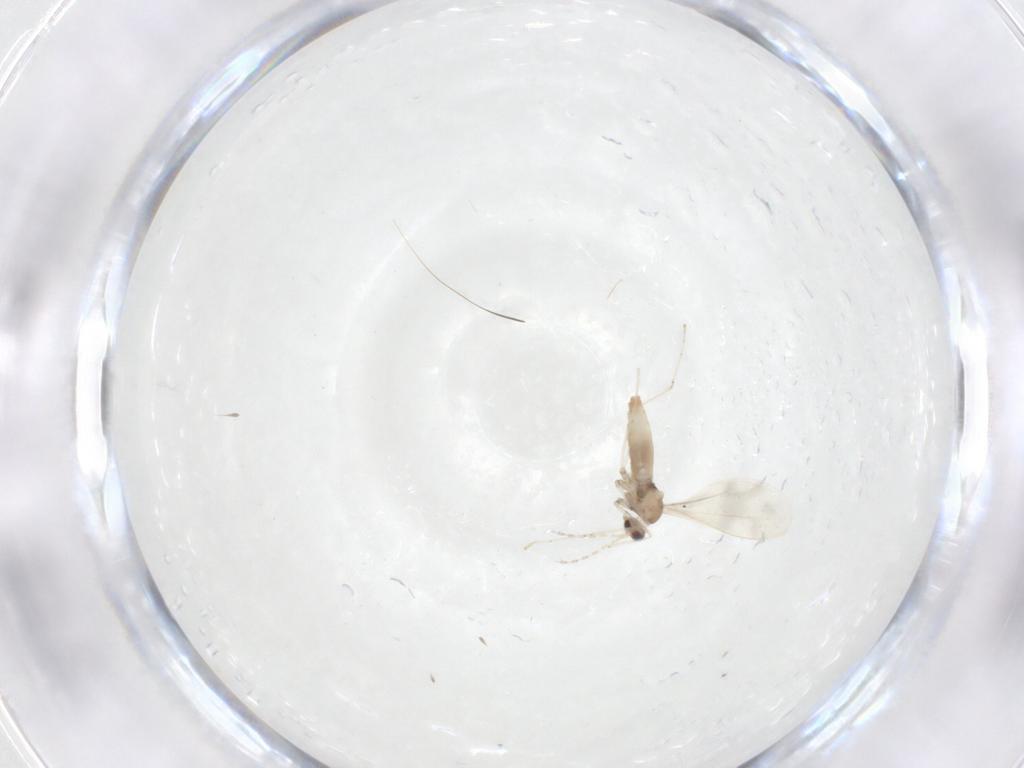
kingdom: Animalia
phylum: Arthropoda
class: Insecta
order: Diptera
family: Cecidomyiidae
